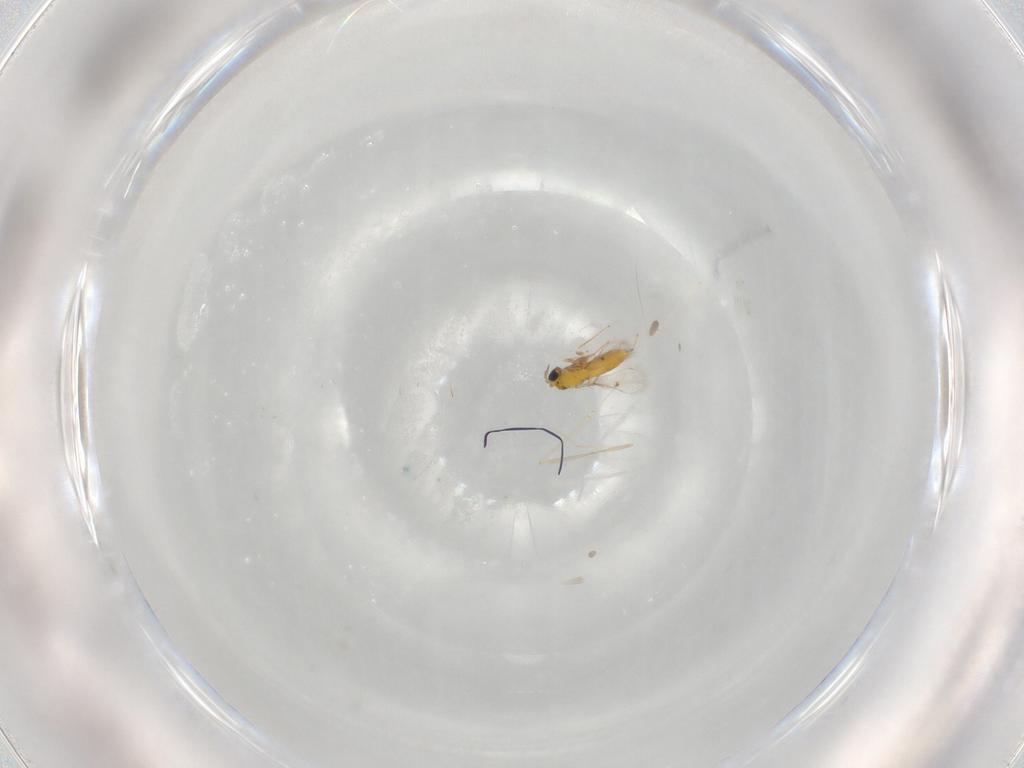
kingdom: Animalia
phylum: Arthropoda
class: Insecta
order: Hymenoptera
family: Trichogrammatidae
